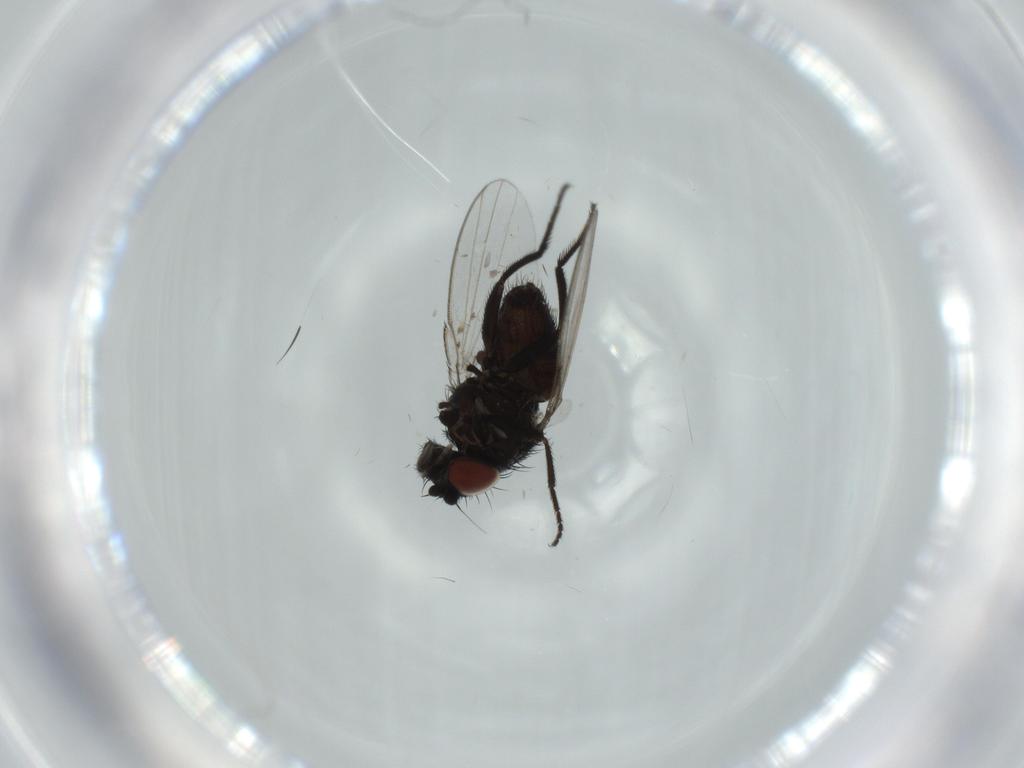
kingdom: Animalia
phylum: Arthropoda
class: Insecta
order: Diptera
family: Milichiidae
